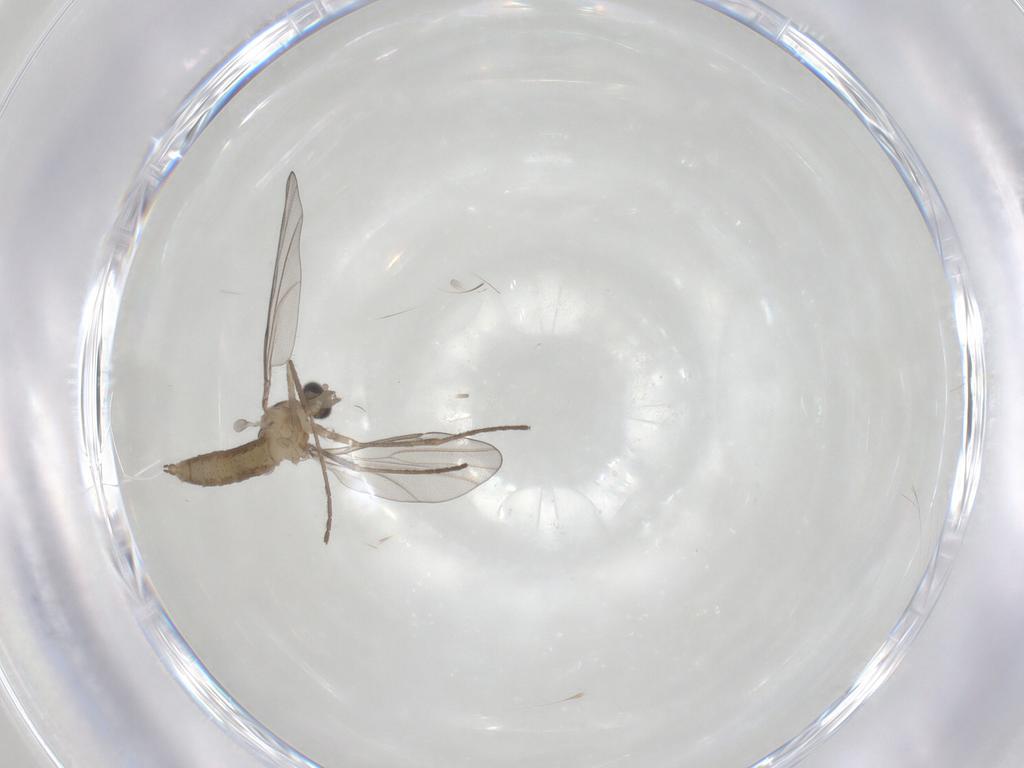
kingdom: Animalia
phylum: Arthropoda
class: Insecta
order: Diptera
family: Cecidomyiidae
